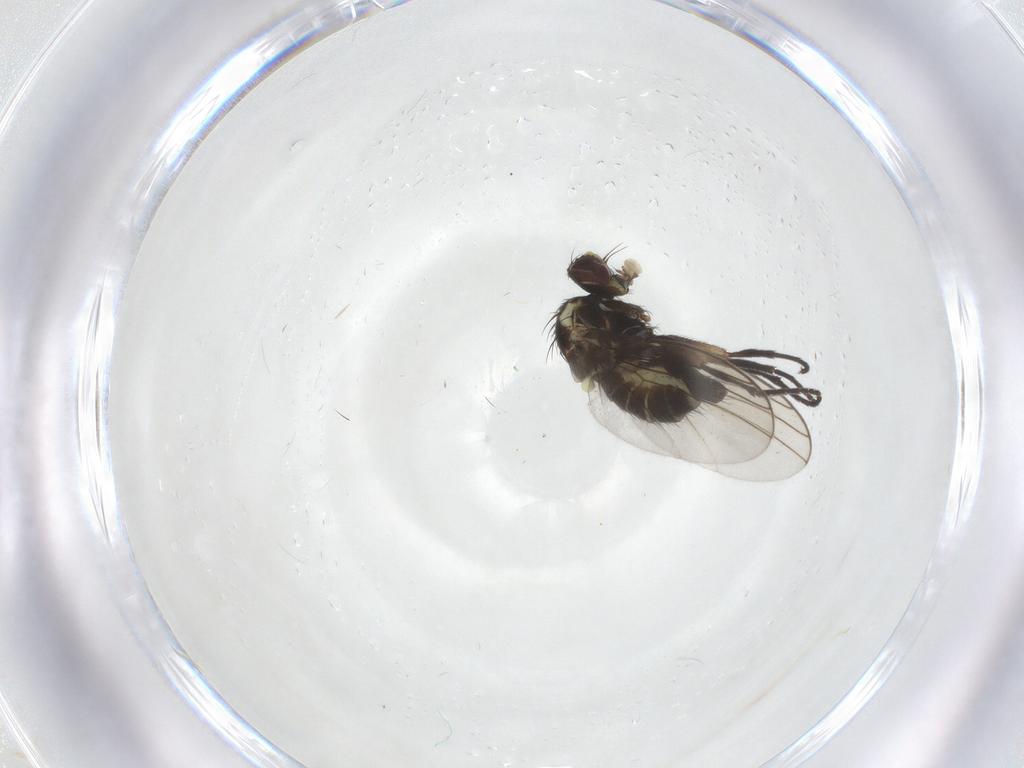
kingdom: Animalia
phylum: Arthropoda
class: Insecta
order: Diptera
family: Agromyzidae
